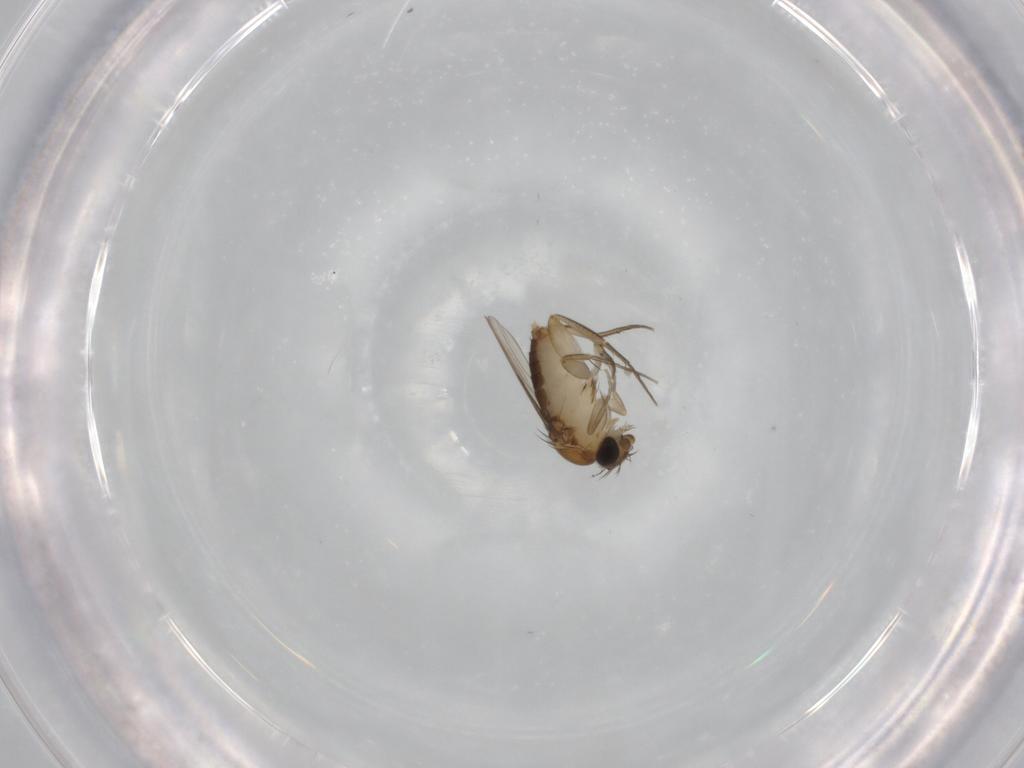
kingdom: Animalia
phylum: Arthropoda
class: Insecta
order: Diptera
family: Phoridae
